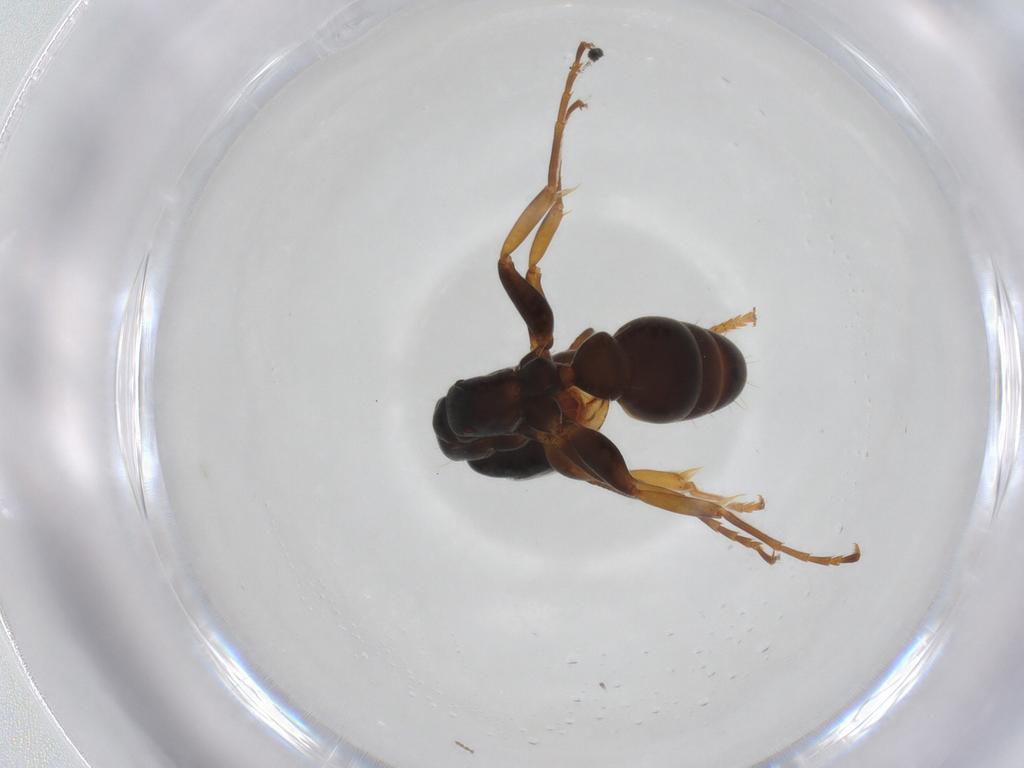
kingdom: Animalia
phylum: Arthropoda
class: Insecta
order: Hymenoptera
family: Formicidae
